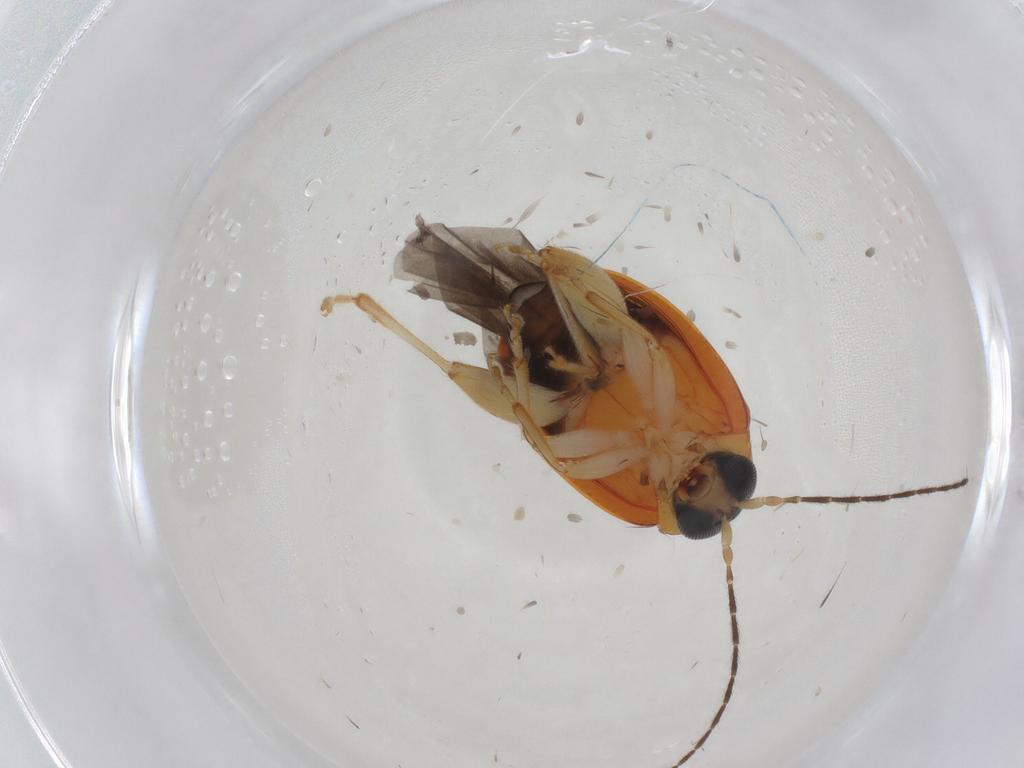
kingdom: Animalia
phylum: Arthropoda
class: Insecta
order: Coleoptera
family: Chrysomelidae
